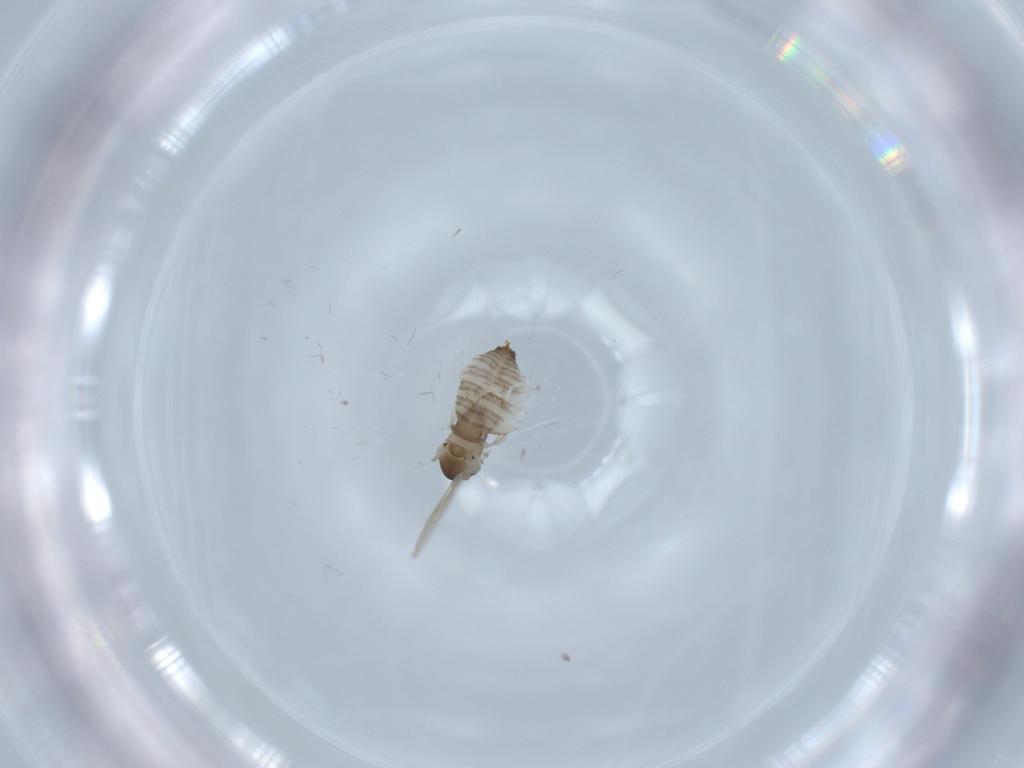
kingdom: Animalia
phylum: Arthropoda
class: Insecta
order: Diptera
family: Psychodidae
